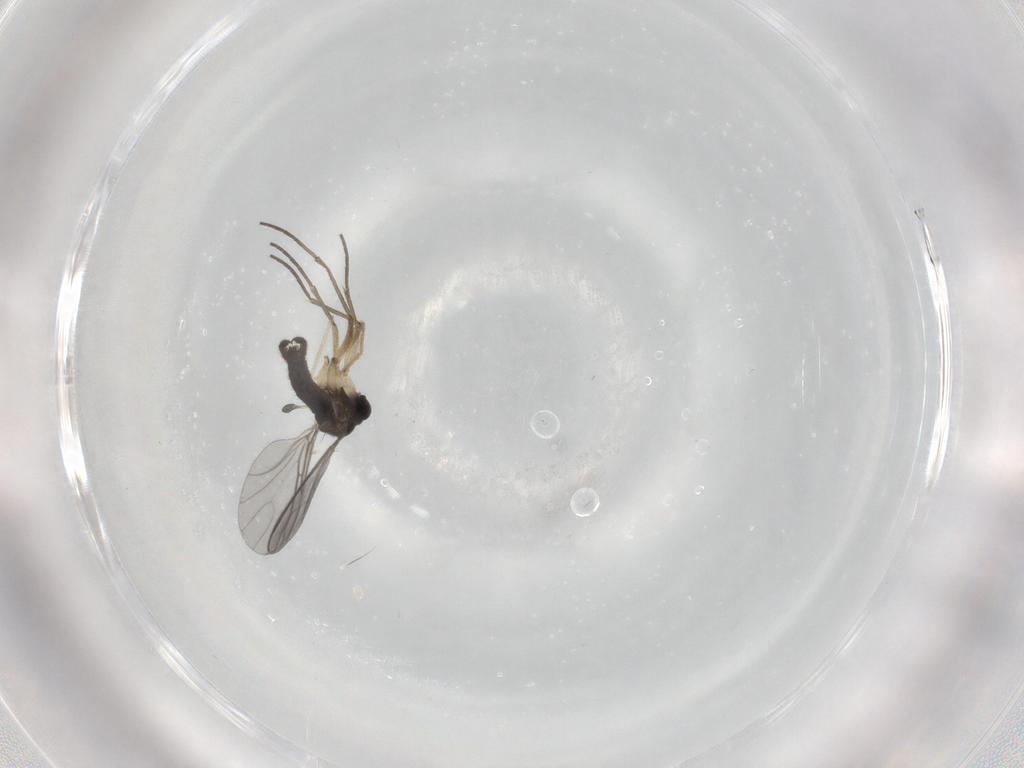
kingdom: Animalia
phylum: Arthropoda
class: Insecta
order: Diptera
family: Sciaridae
